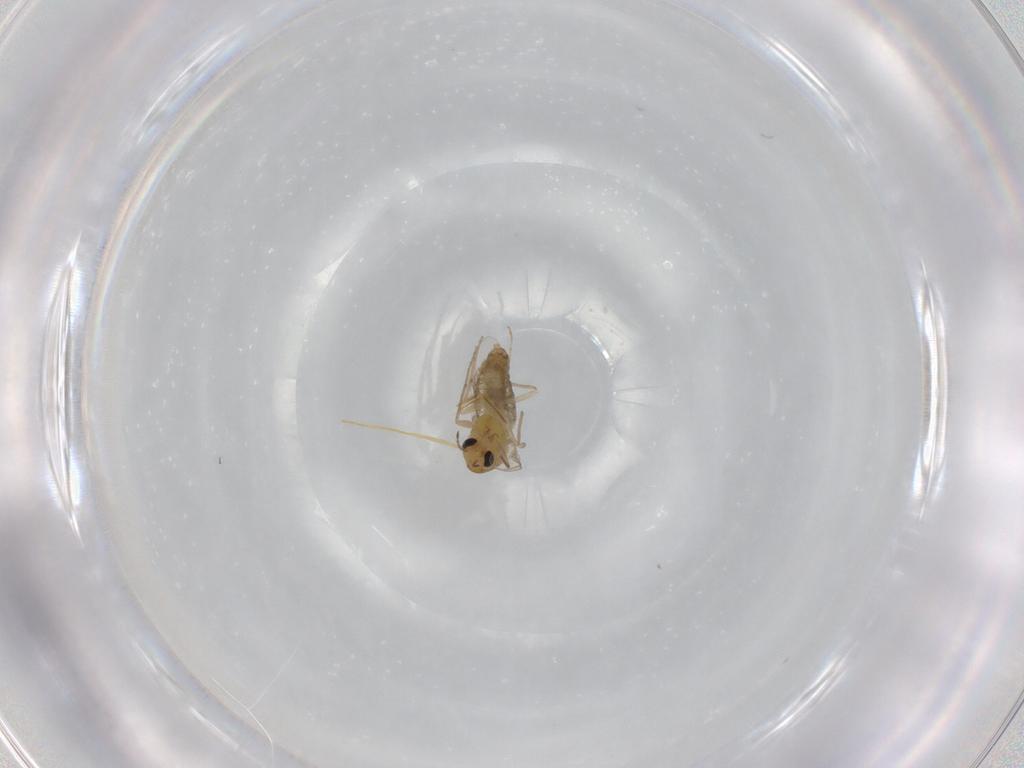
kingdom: Animalia
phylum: Arthropoda
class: Insecta
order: Diptera
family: Chironomidae
